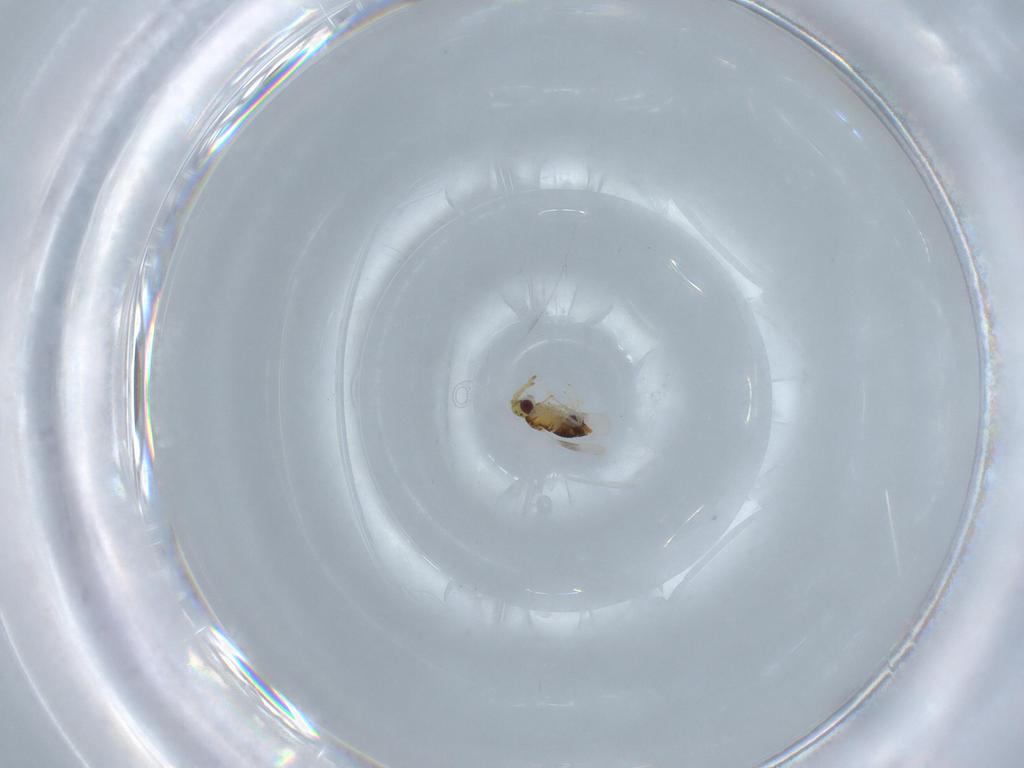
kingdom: Animalia
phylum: Arthropoda
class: Insecta
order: Hymenoptera
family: Aphelinidae
